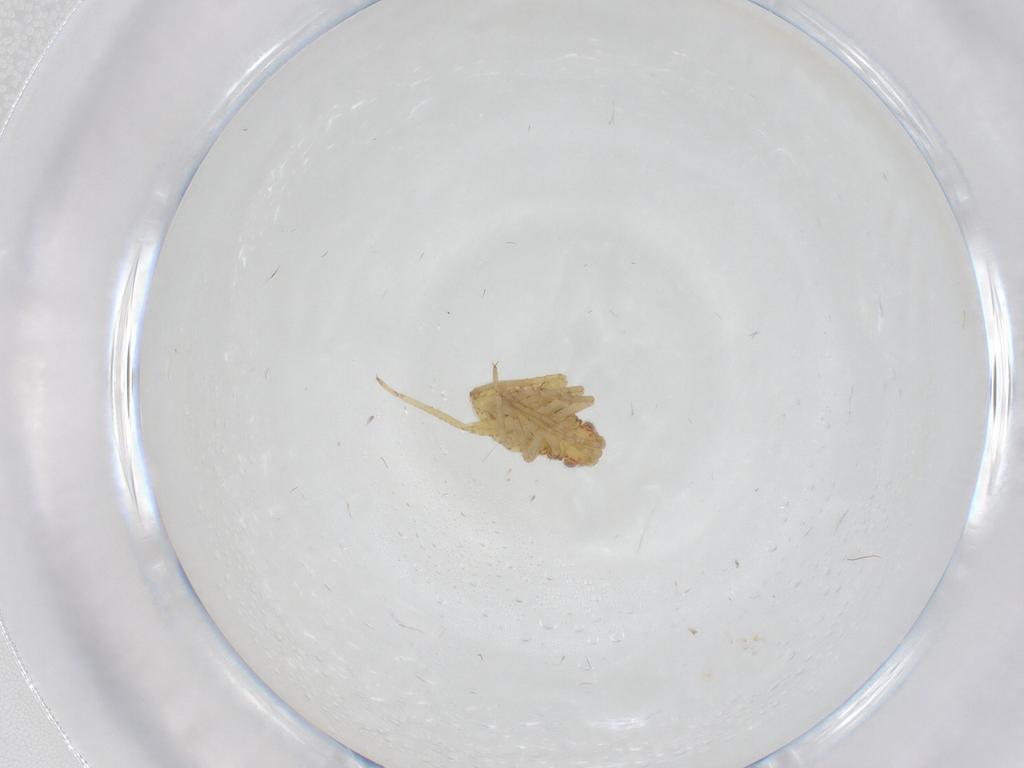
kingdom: Animalia
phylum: Arthropoda
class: Insecta
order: Hemiptera
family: Miridae
